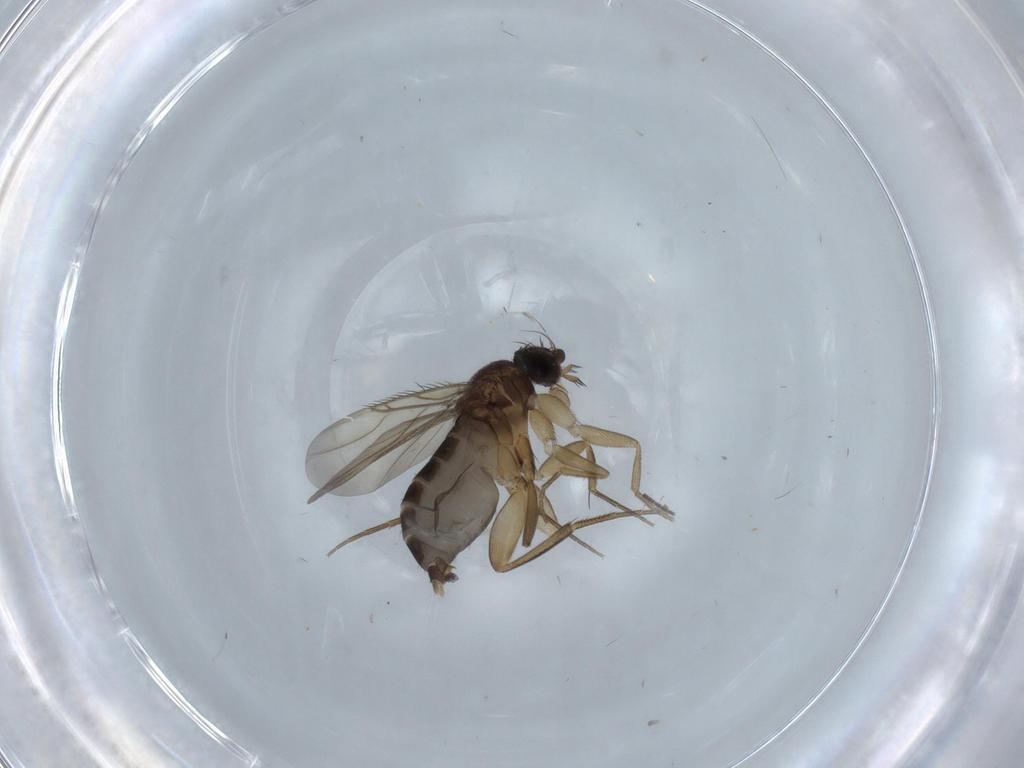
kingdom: Animalia
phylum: Arthropoda
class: Insecta
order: Diptera
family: Phoridae
